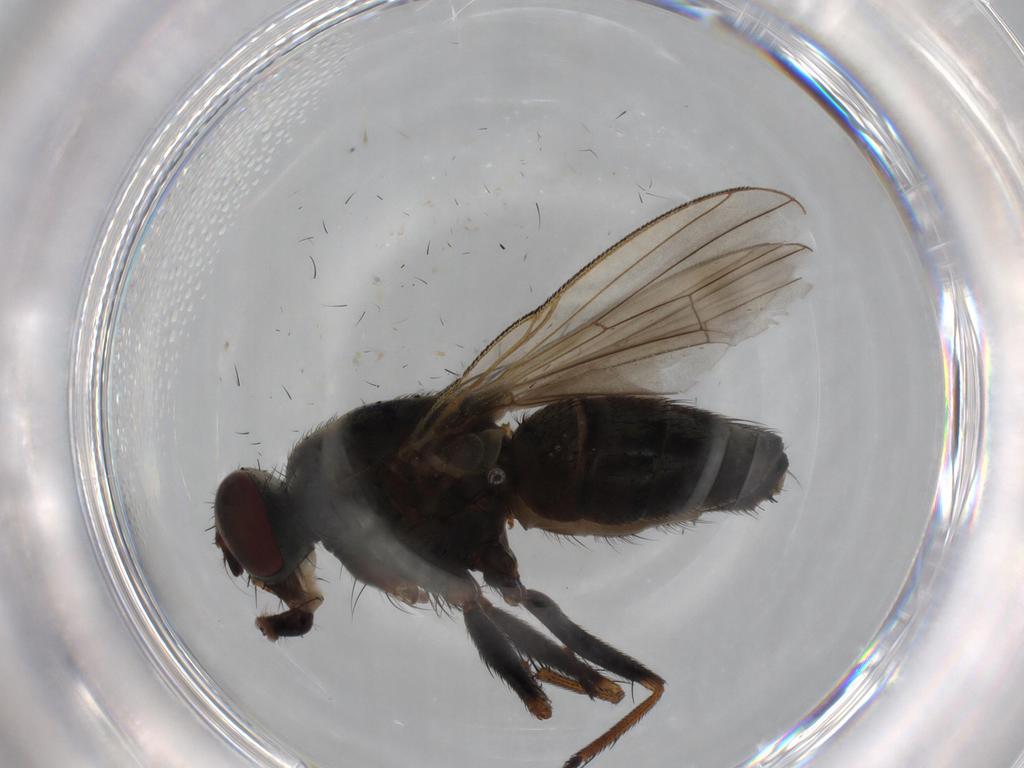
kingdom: Animalia
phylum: Arthropoda
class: Insecta
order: Diptera
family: Muscidae
